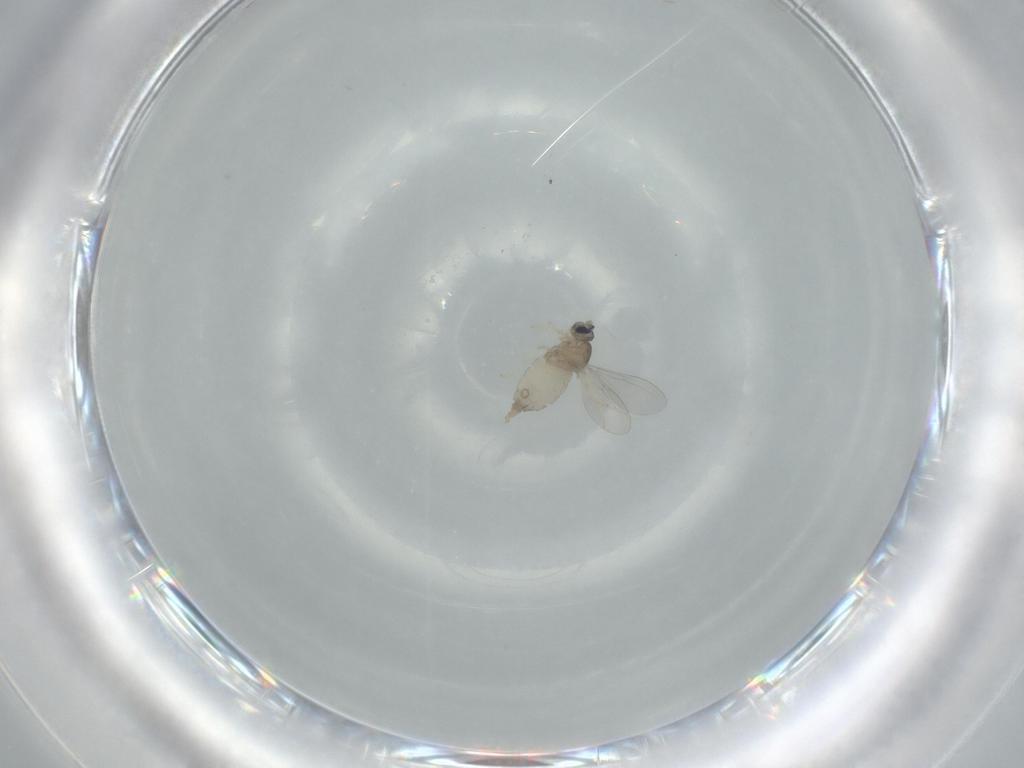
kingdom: Animalia
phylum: Arthropoda
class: Insecta
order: Diptera
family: Cecidomyiidae
